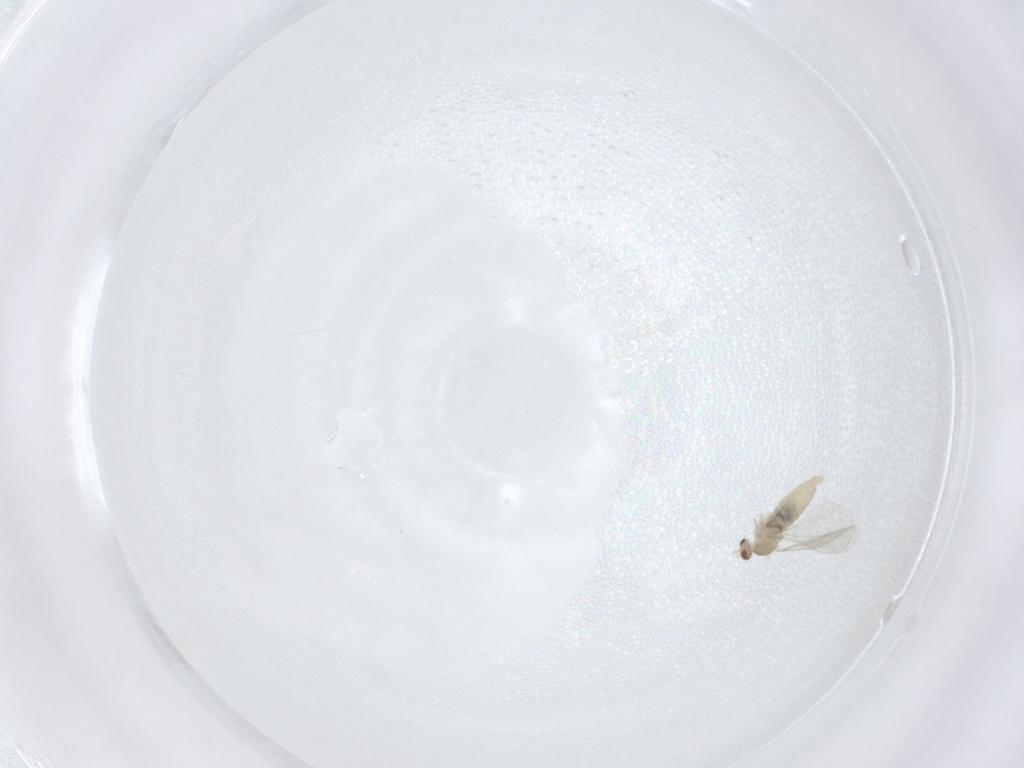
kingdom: Animalia
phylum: Arthropoda
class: Insecta
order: Diptera
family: Cecidomyiidae
